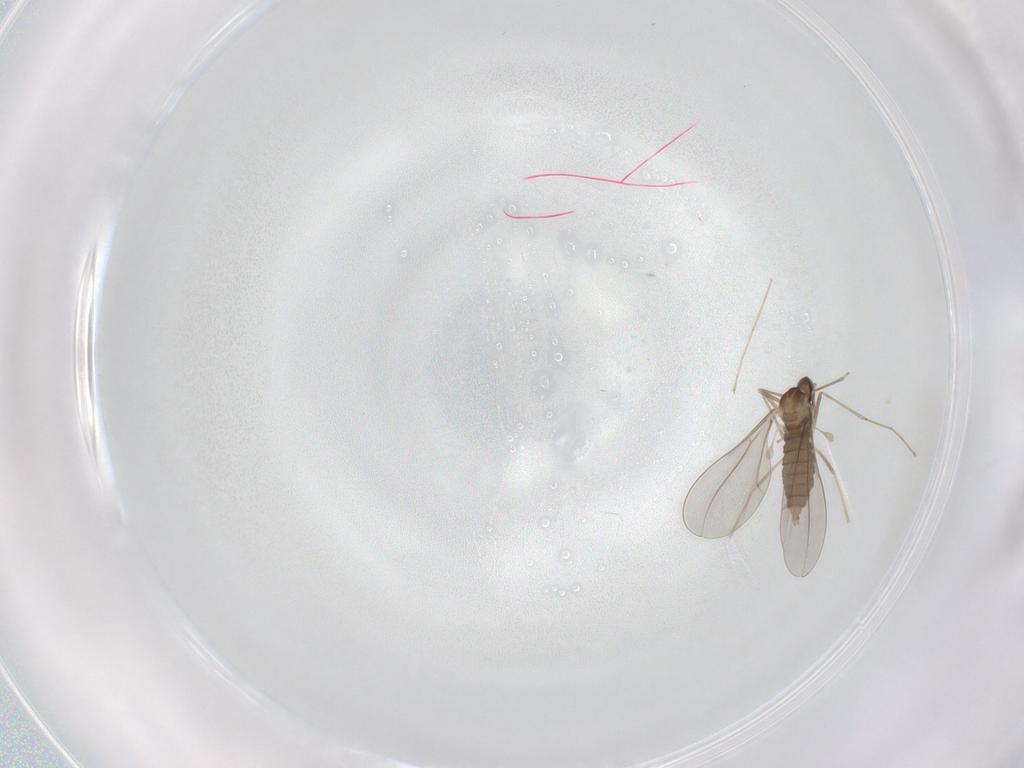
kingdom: Animalia
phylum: Arthropoda
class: Insecta
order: Diptera
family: Cecidomyiidae
